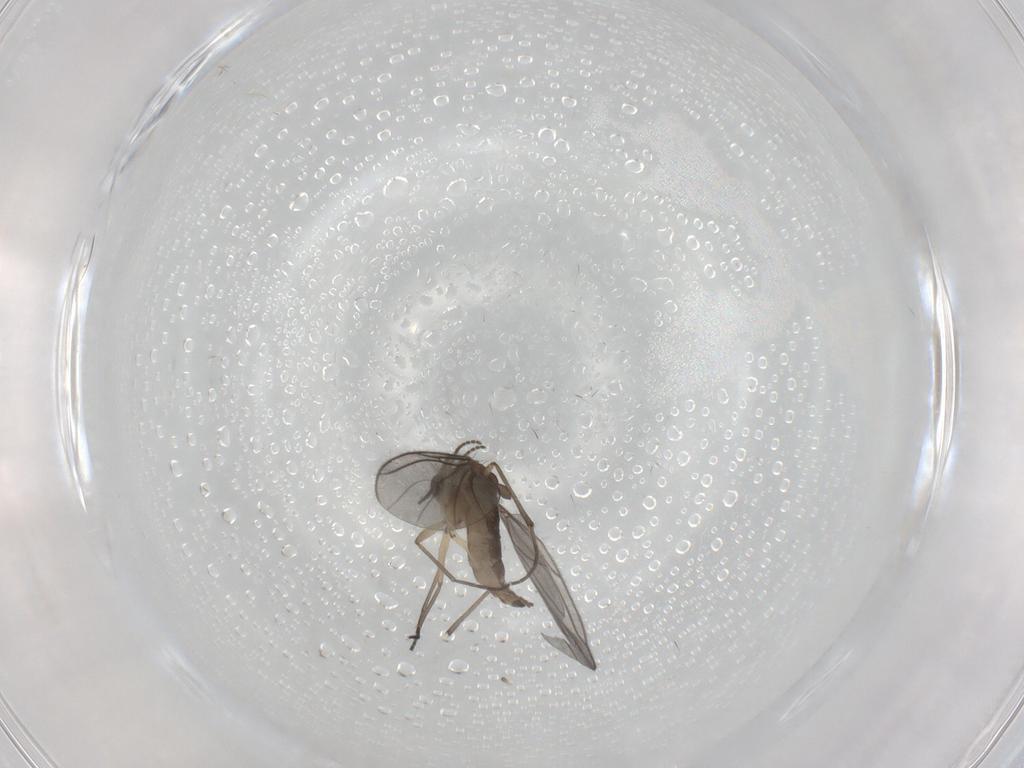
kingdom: Animalia
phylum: Arthropoda
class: Insecta
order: Diptera
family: Sciaridae
